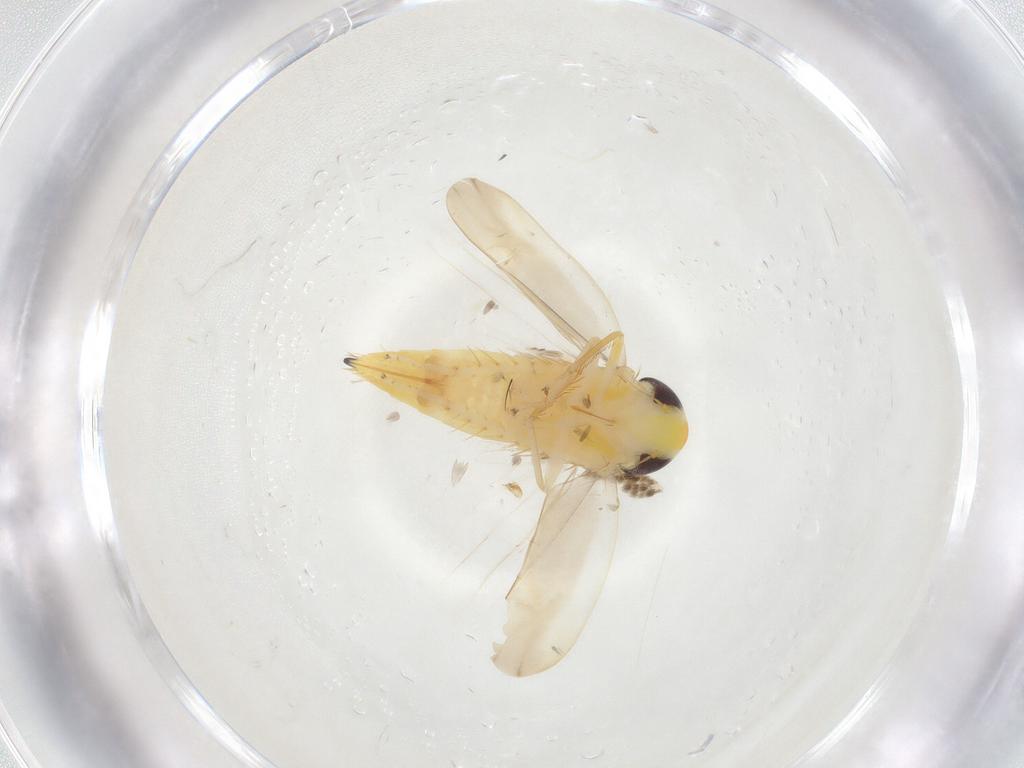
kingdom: Animalia
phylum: Arthropoda
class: Insecta
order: Hemiptera
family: Cicadellidae
